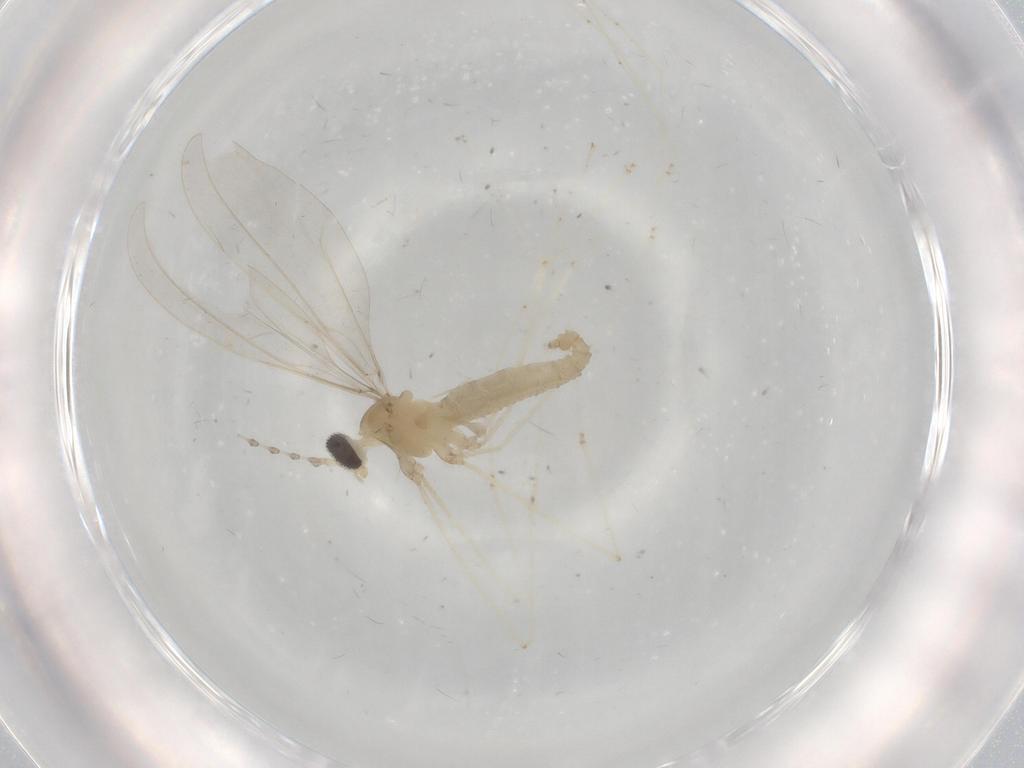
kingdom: Animalia
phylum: Arthropoda
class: Insecta
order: Diptera
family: Cecidomyiidae
